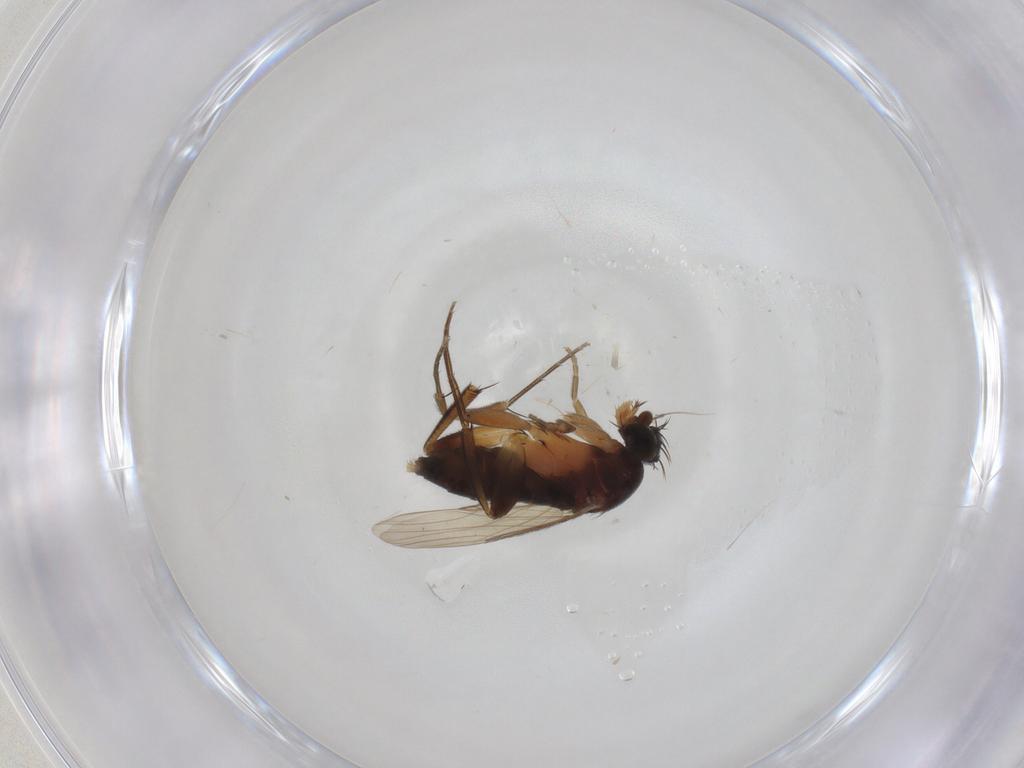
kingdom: Animalia
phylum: Arthropoda
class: Insecta
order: Diptera
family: Phoridae
